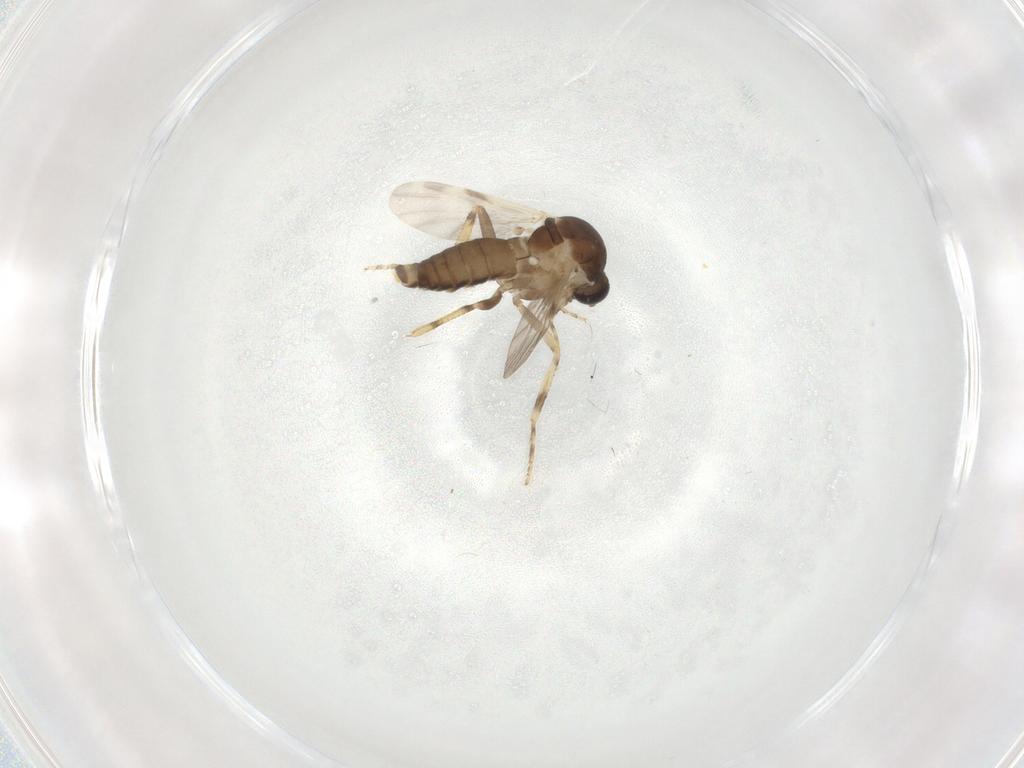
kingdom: Animalia
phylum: Arthropoda
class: Insecta
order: Diptera
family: Ceratopogonidae
